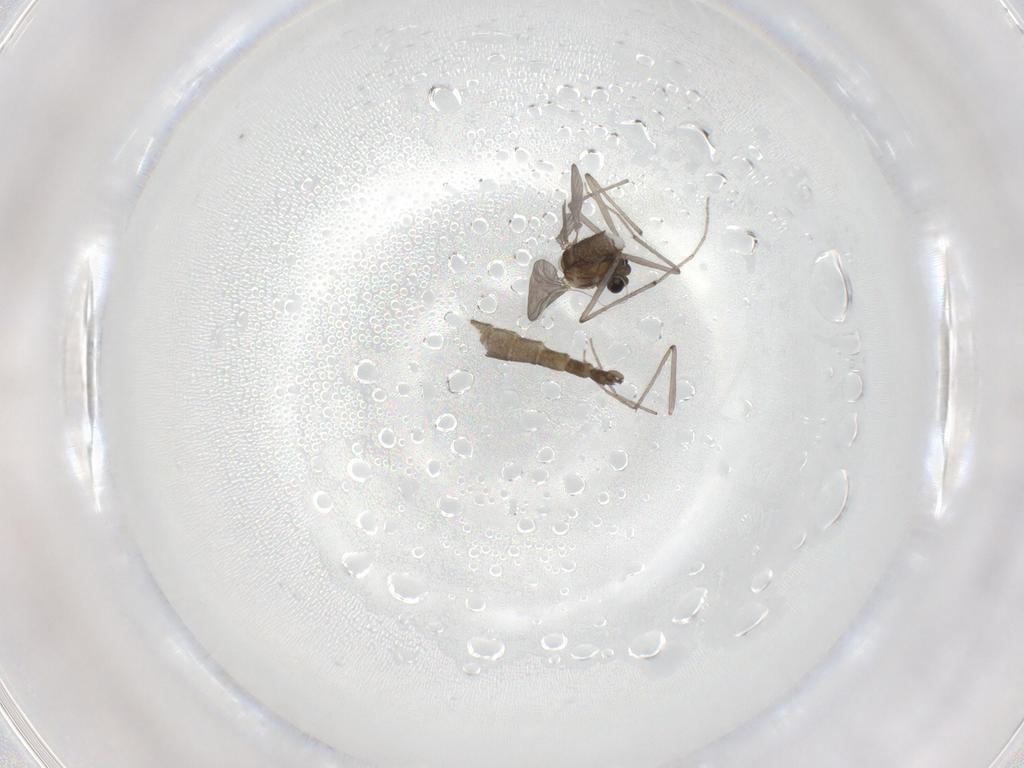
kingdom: Animalia
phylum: Arthropoda
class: Insecta
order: Diptera
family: Chironomidae
